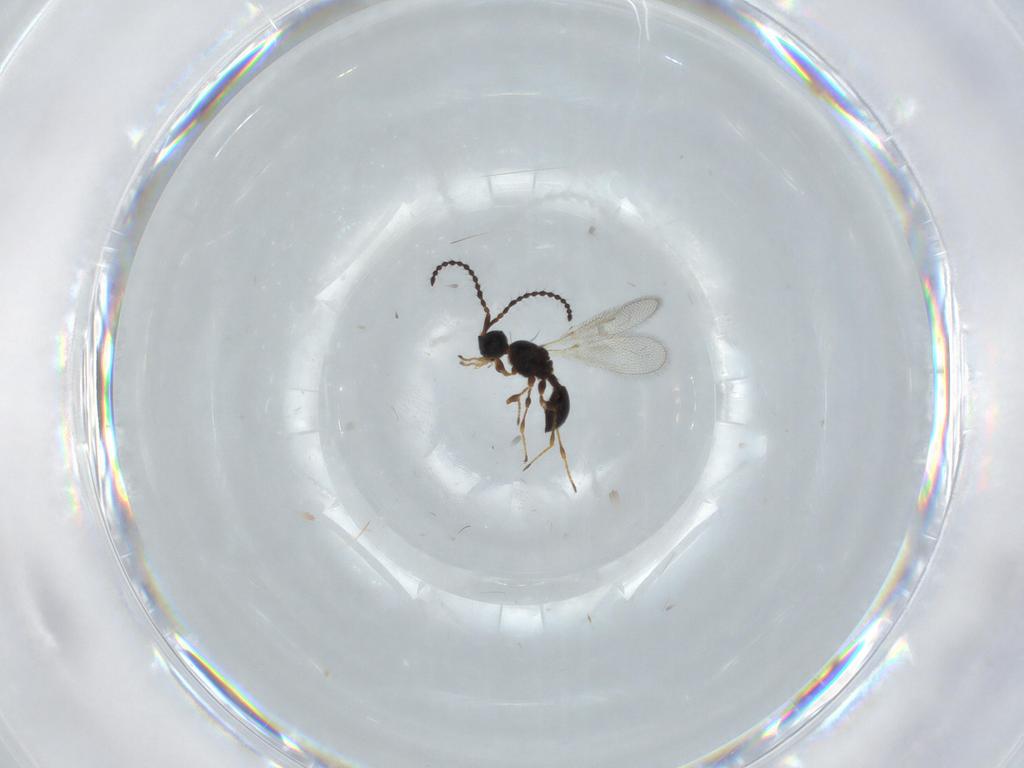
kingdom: Animalia
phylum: Arthropoda
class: Insecta
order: Hymenoptera
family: Diapriidae
